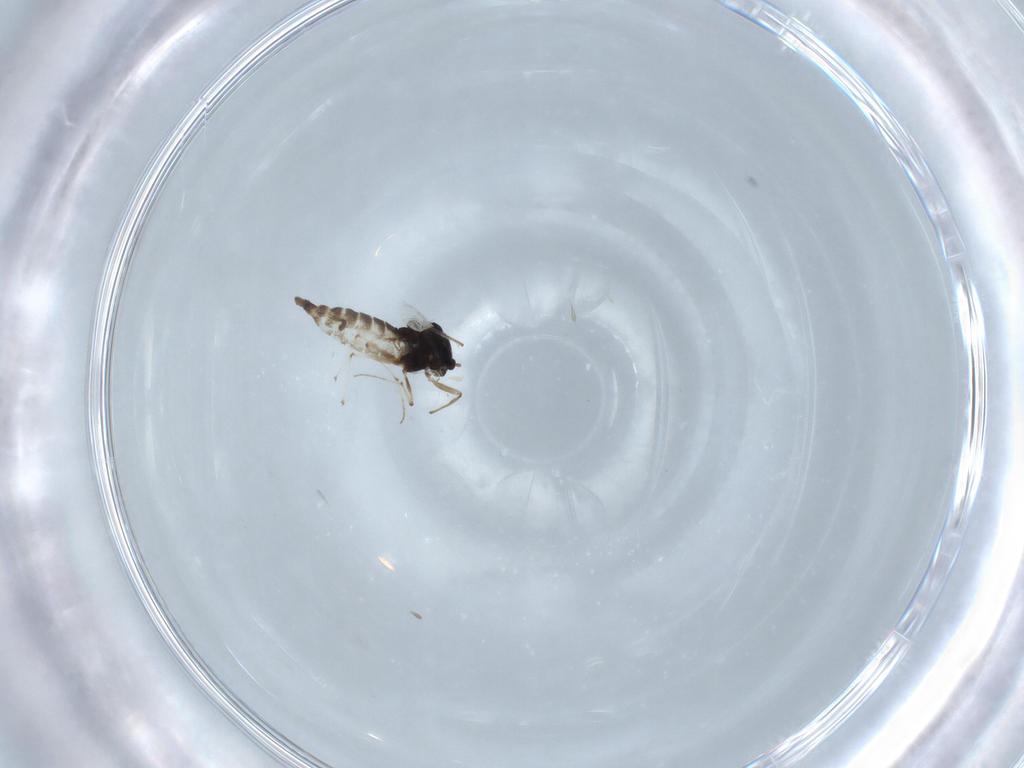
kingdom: Animalia
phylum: Arthropoda
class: Insecta
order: Diptera
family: Chironomidae
